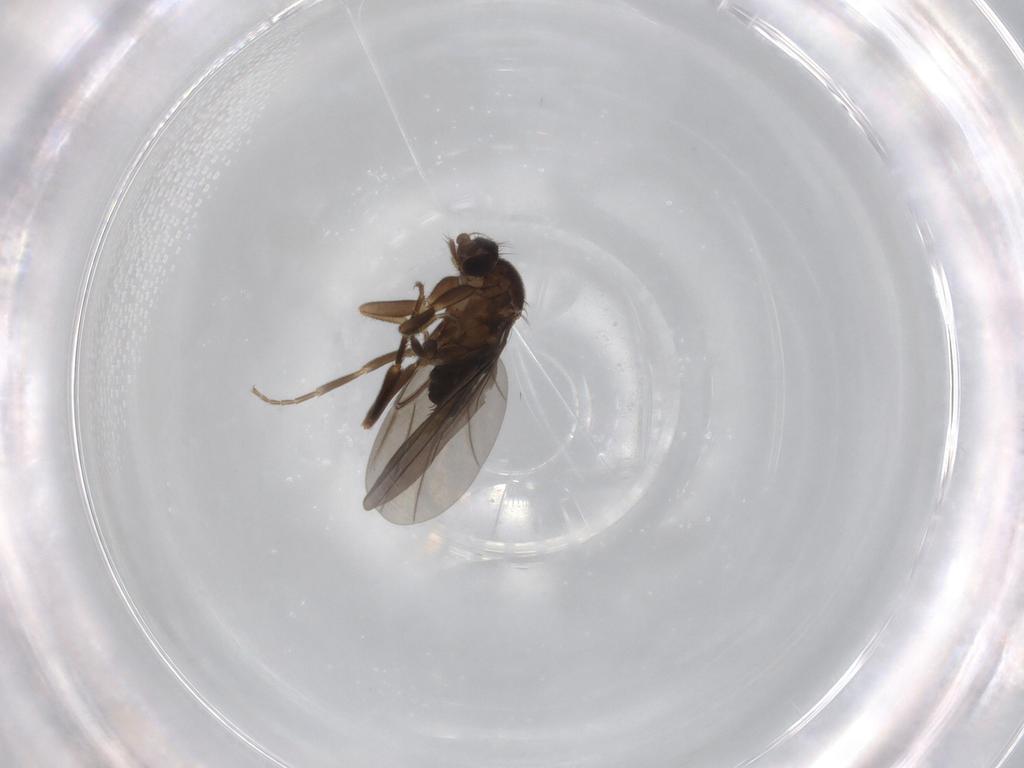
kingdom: Animalia
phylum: Arthropoda
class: Insecta
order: Diptera
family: Phoridae
